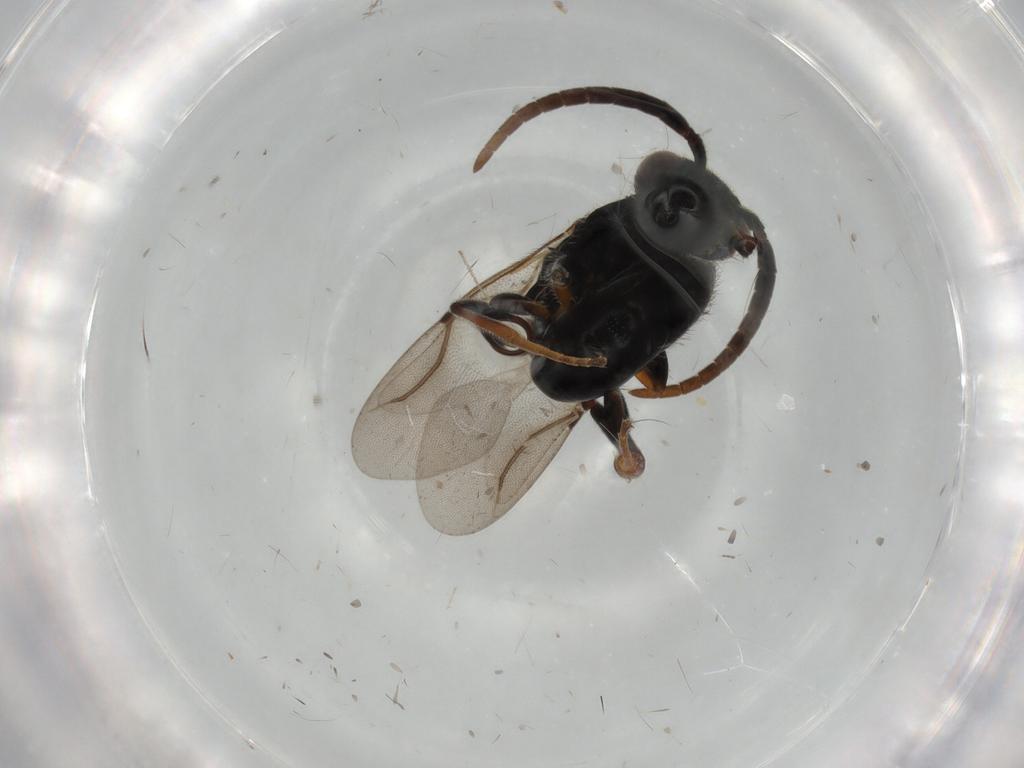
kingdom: Animalia
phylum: Arthropoda
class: Insecta
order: Hymenoptera
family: Bethylidae
